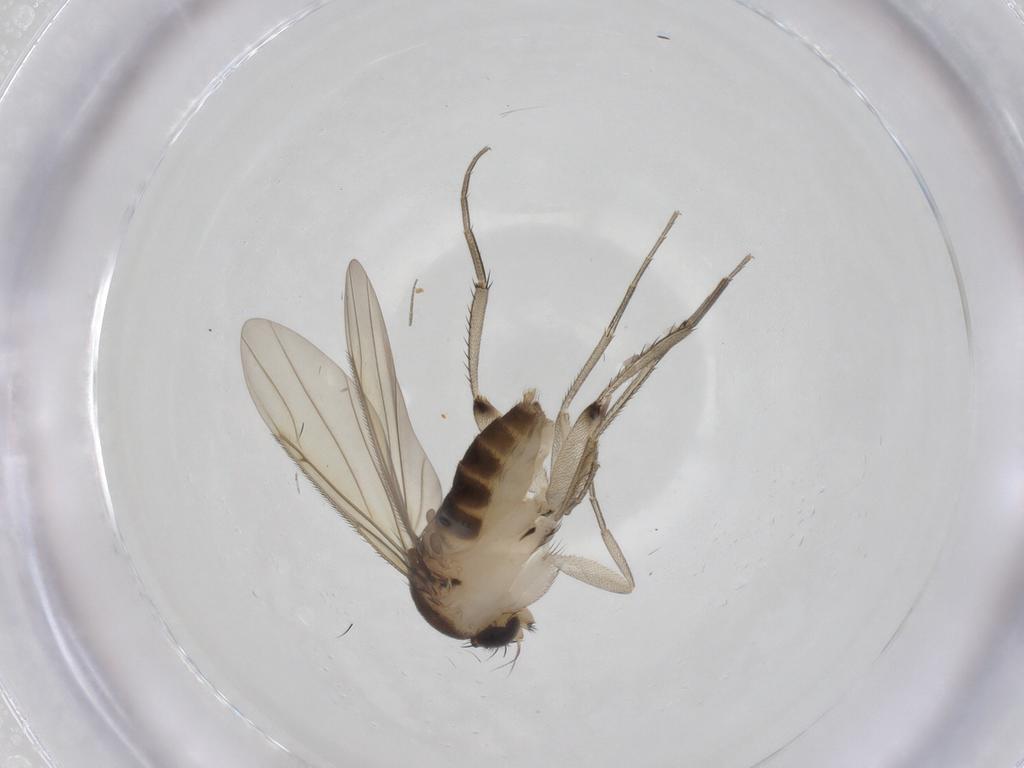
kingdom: Animalia
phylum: Arthropoda
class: Insecta
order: Diptera
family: Phoridae
